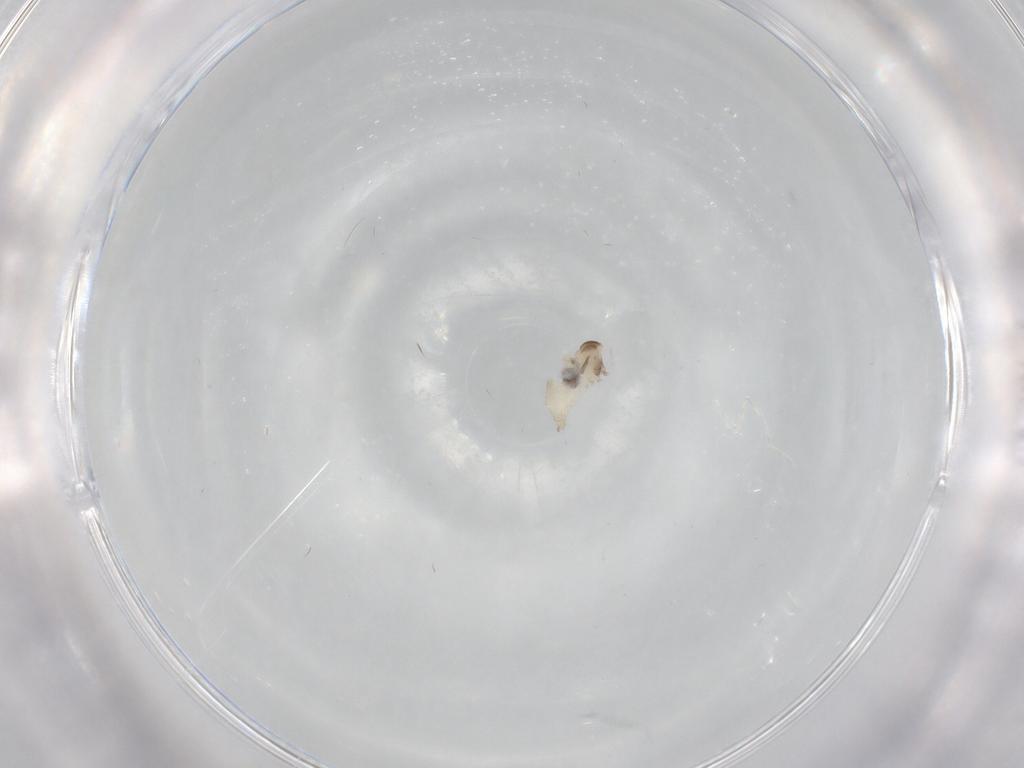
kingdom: Animalia
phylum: Arthropoda
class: Insecta
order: Diptera
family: Cecidomyiidae
